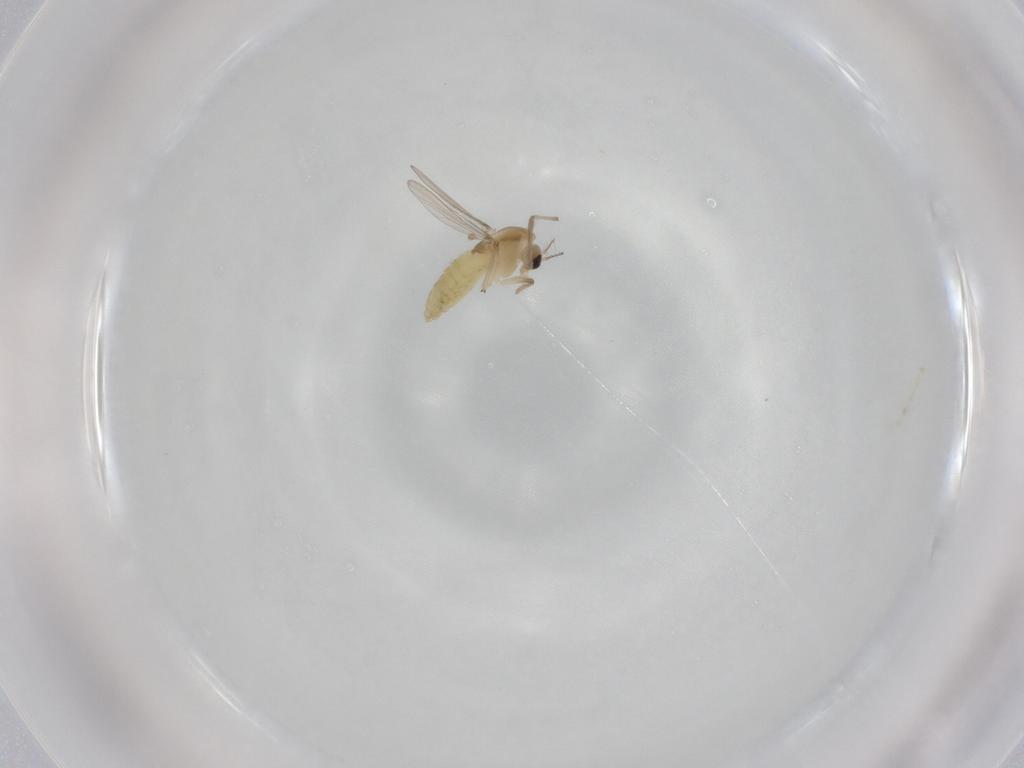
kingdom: Animalia
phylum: Arthropoda
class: Insecta
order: Diptera
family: Chironomidae
